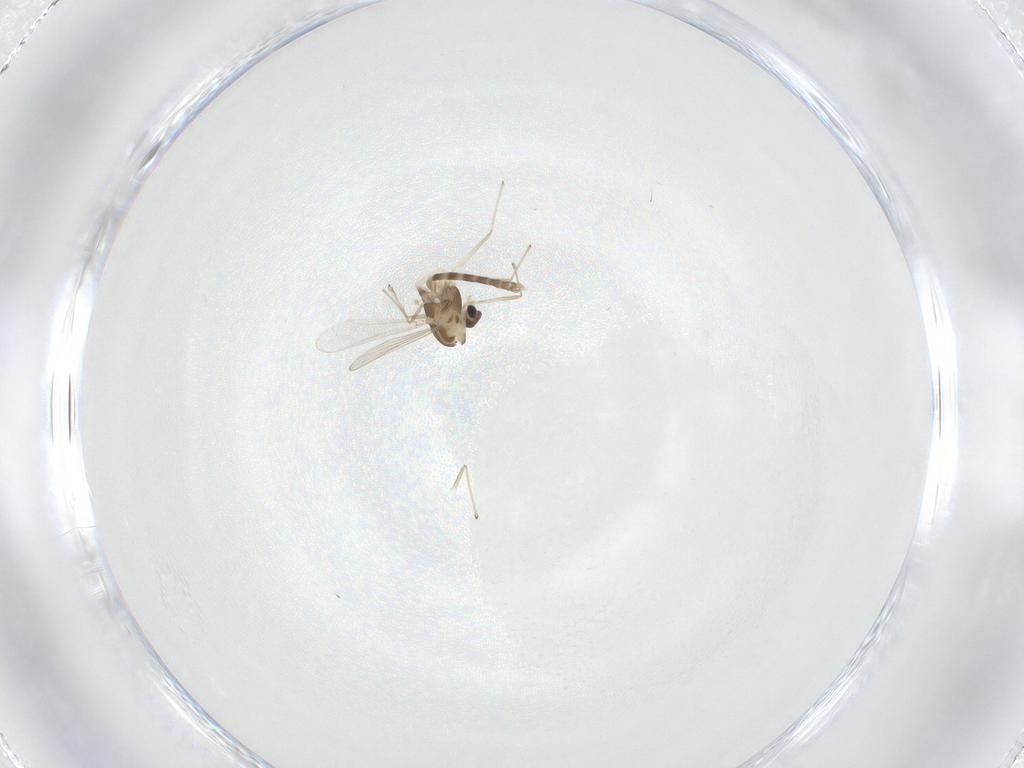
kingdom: Animalia
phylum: Arthropoda
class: Insecta
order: Diptera
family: Chironomidae
